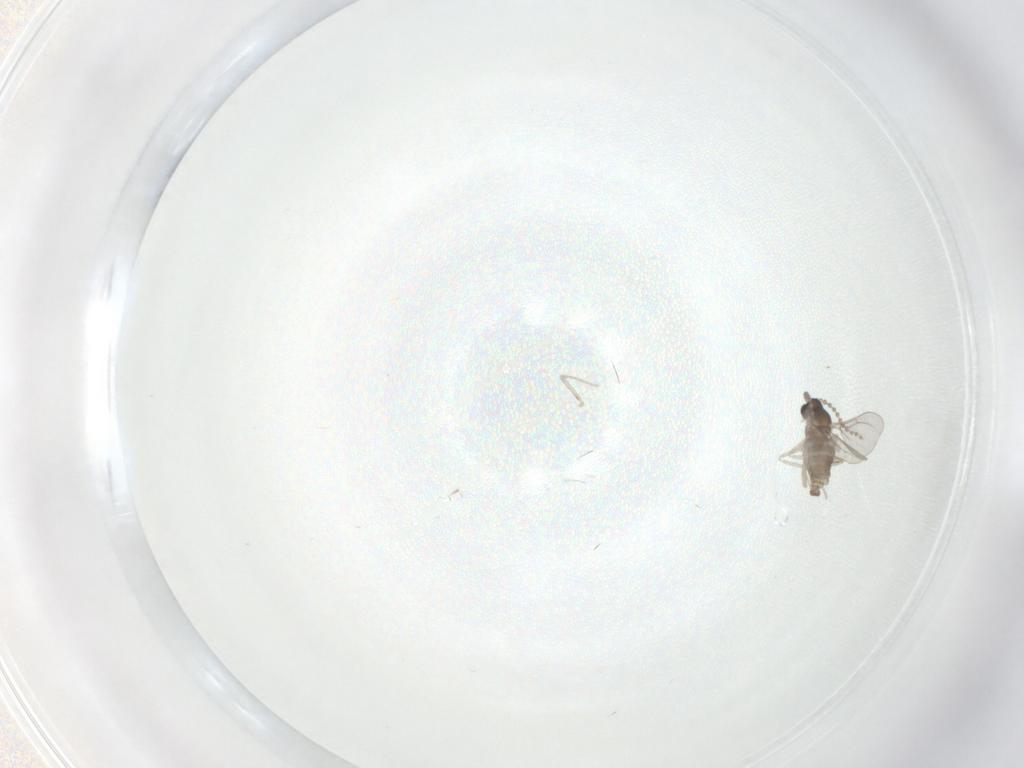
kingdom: Animalia
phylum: Arthropoda
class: Insecta
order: Diptera
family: Cecidomyiidae
